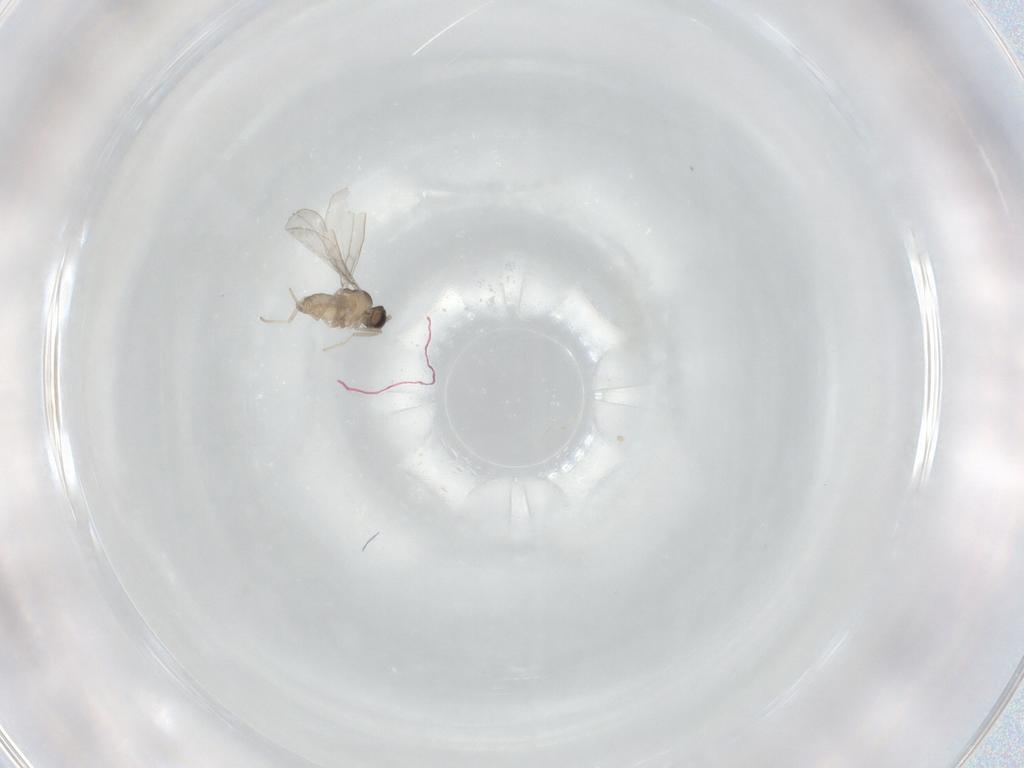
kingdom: Animalia
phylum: Arthropoda
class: Insecta
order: Diptera
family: Cecidomyiidae
